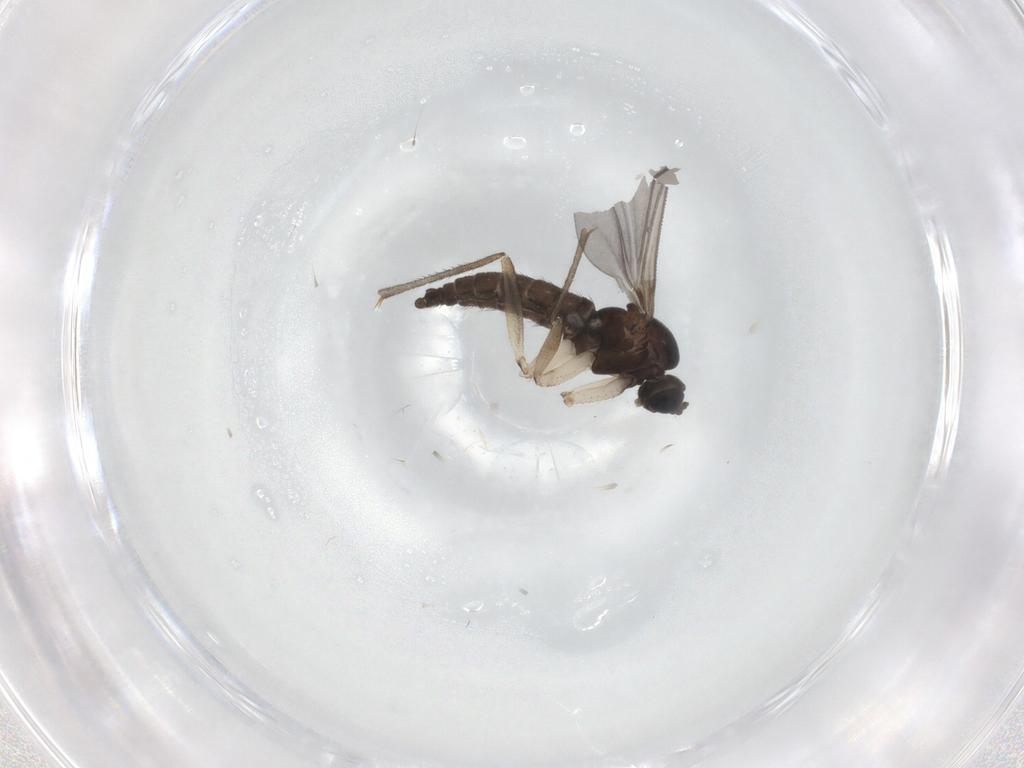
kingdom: Animalia
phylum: Arthropoda
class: Insecta
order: Diptera
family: Sciaridae
